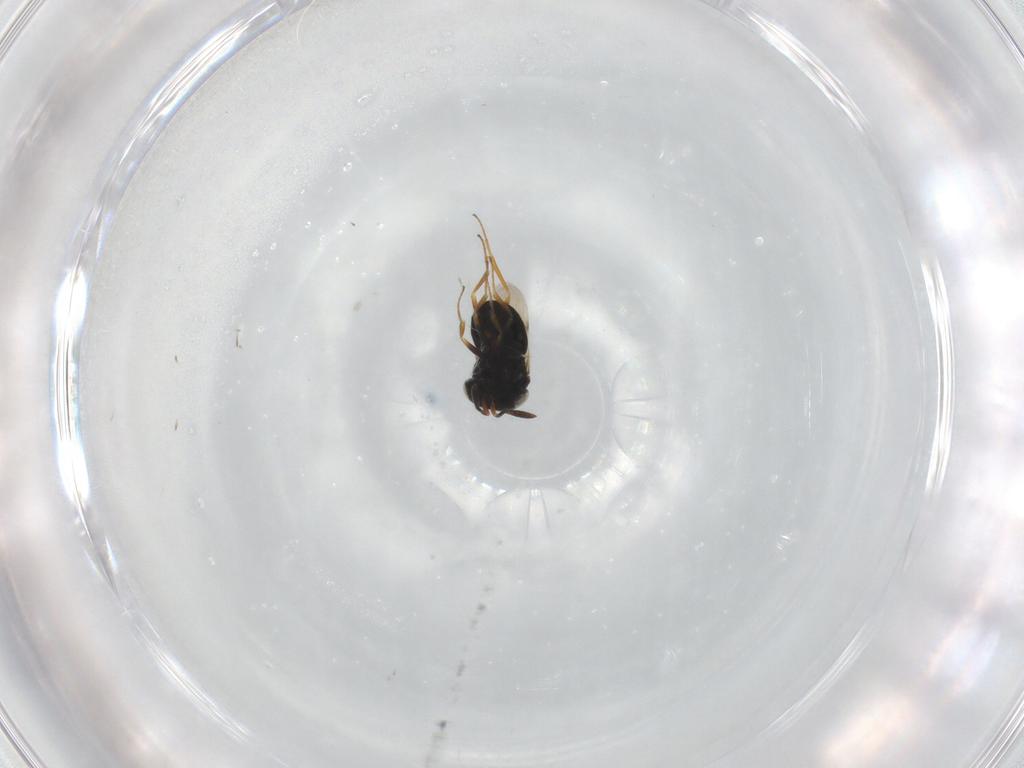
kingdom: Animalia
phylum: Arthropoda
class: Insecta
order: Hymenoptera
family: Scelionidae
